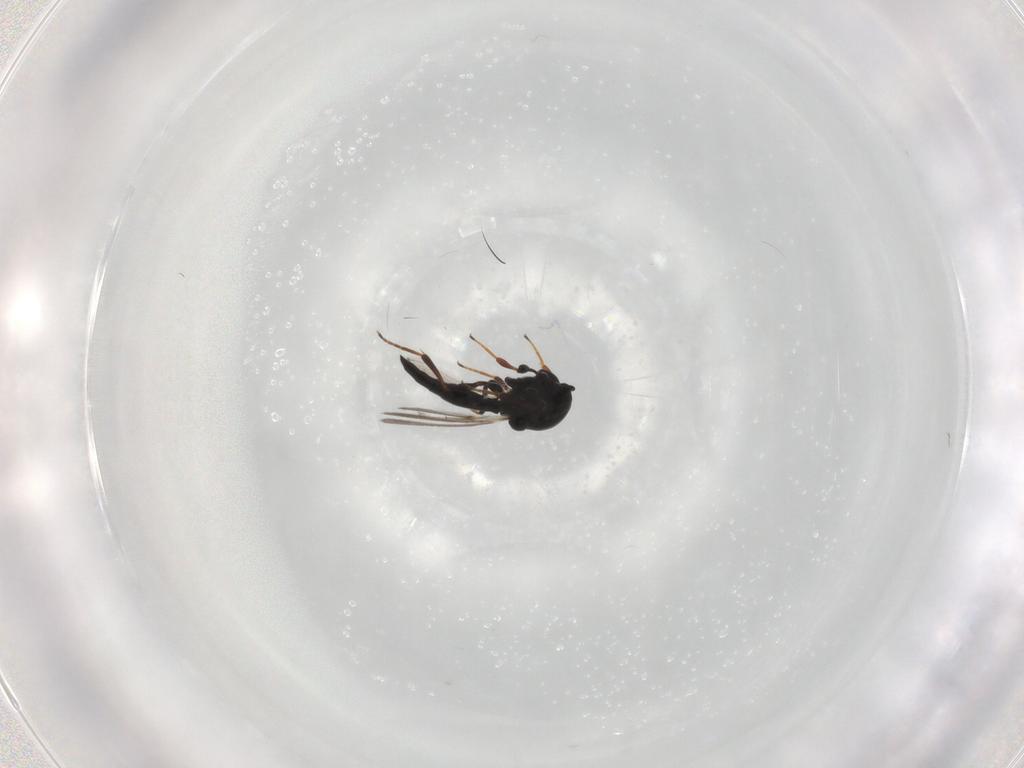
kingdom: Animalia
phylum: Arthropoda
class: Insecta
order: Hymenoptera
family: Platygastridae
